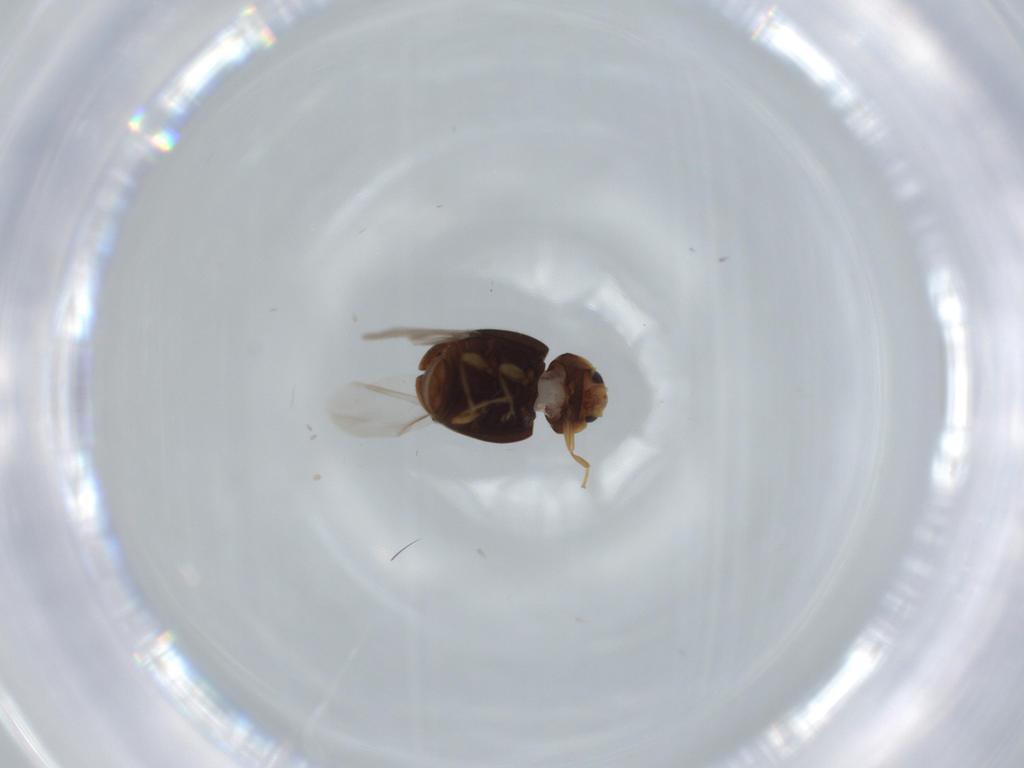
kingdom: Animalia
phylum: Arthropoda
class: Insecta
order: Coleoptera
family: Coccinellidae
